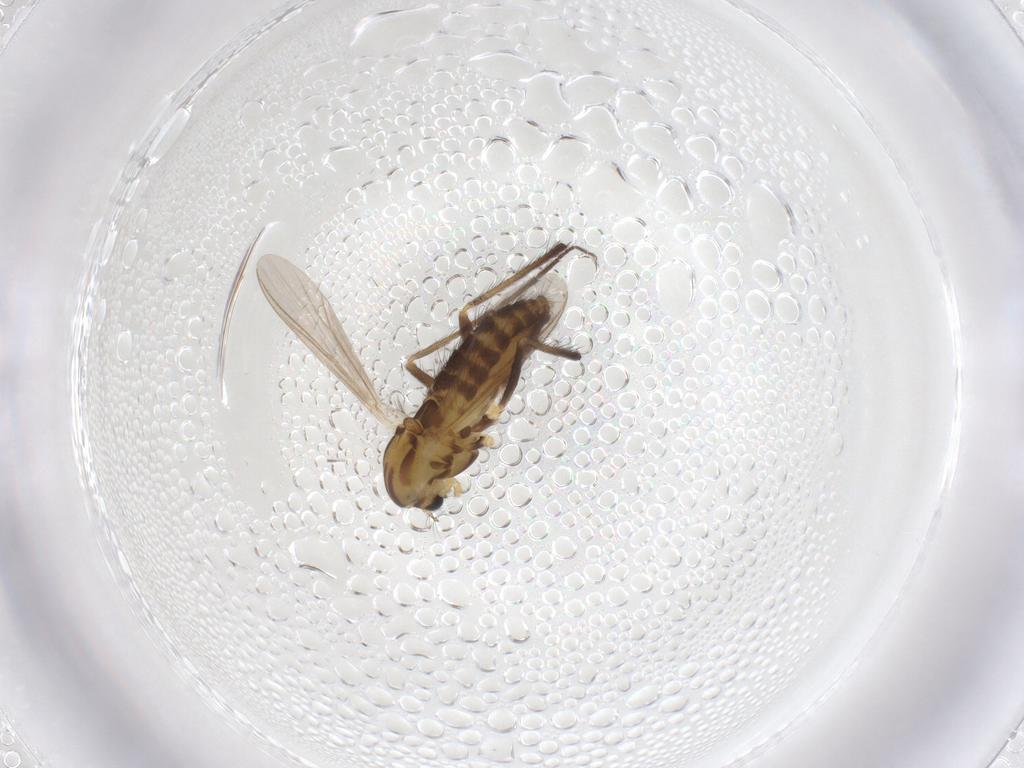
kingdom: Animalia
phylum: Arthropoda
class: Insecta
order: Diptera
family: Chironomidae
